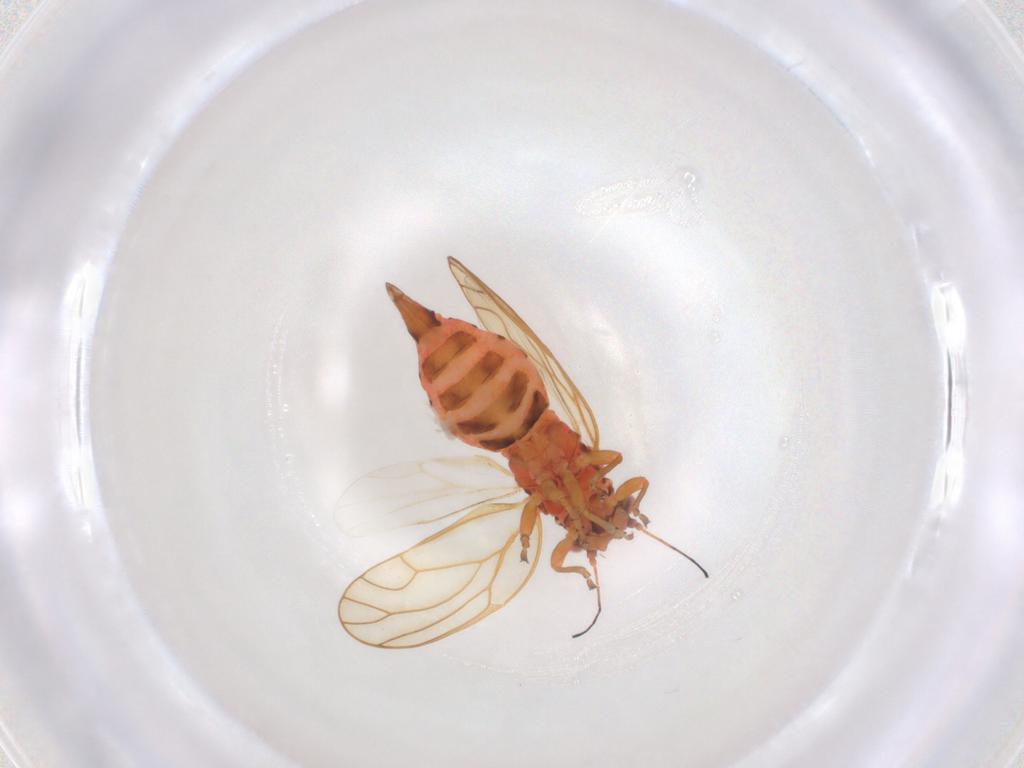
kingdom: Animalia
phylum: Arthropoda
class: Insecta
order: Hemiptera
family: Psyllidae
